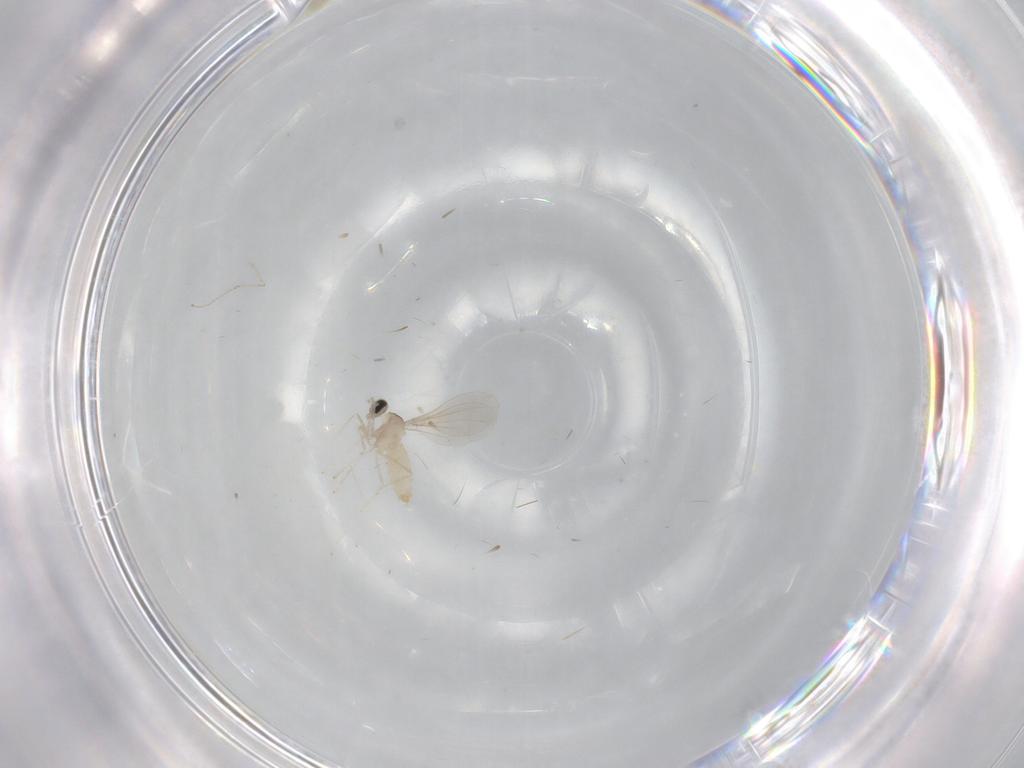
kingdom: Animalia
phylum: Arthropoda
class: Insecta
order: Diptera
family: Cecidomyiidae
